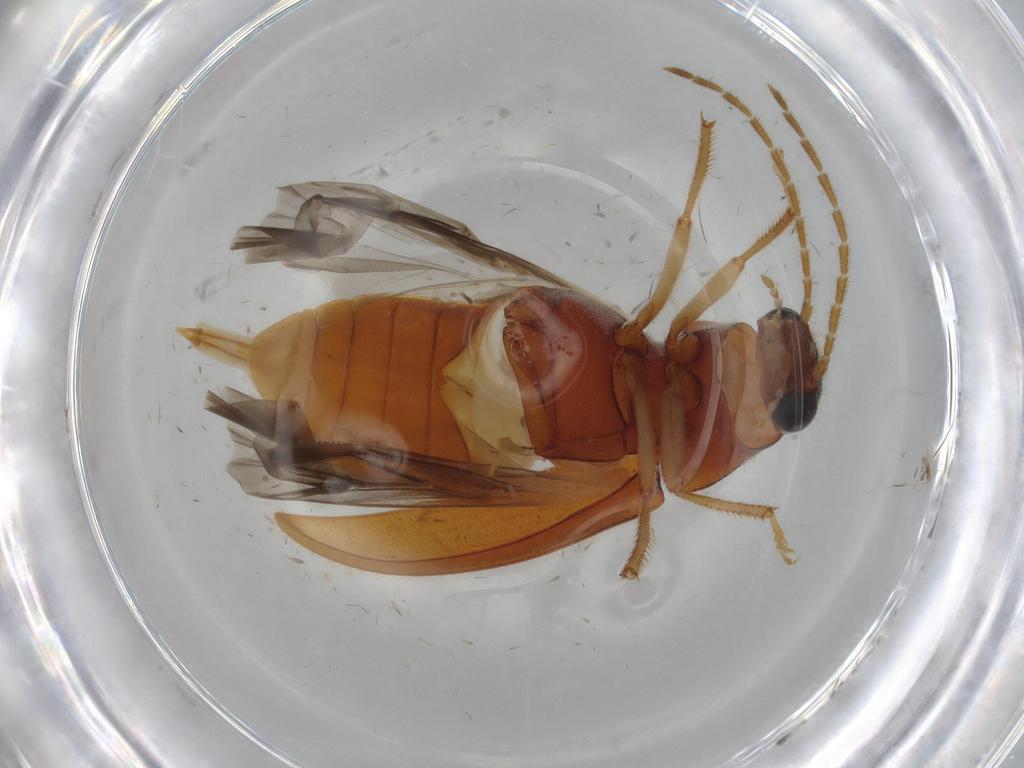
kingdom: Animalia
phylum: Arthropoda
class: Insecta
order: Coleoptera
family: Ptilodactylidae
